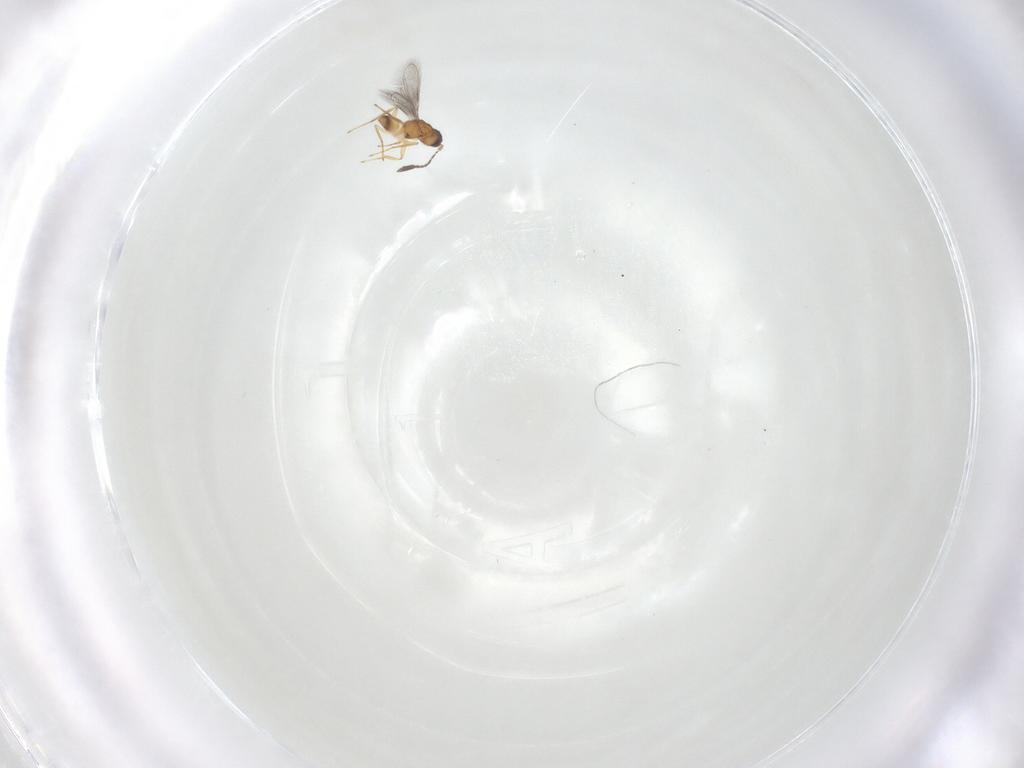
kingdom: Animalia
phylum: Arthropoda
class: Insecta
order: Hymenoptera
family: Mymaridae
